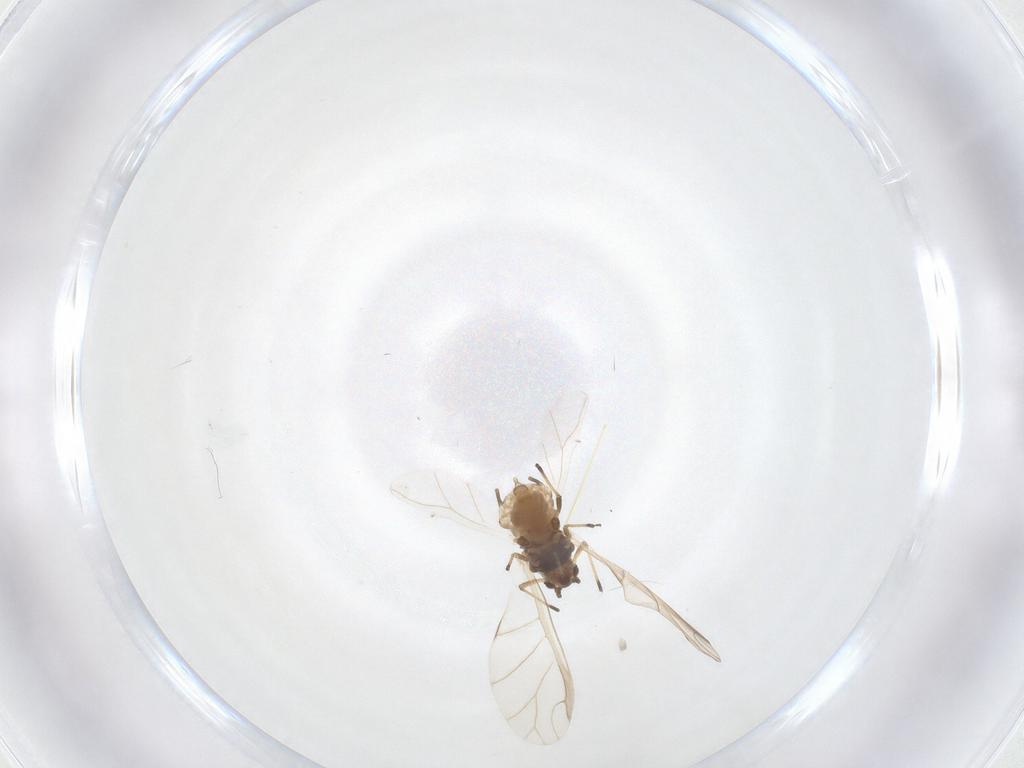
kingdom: Animalia
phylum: Arthropoda
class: Insecta
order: Hemiptera
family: Aphididae
